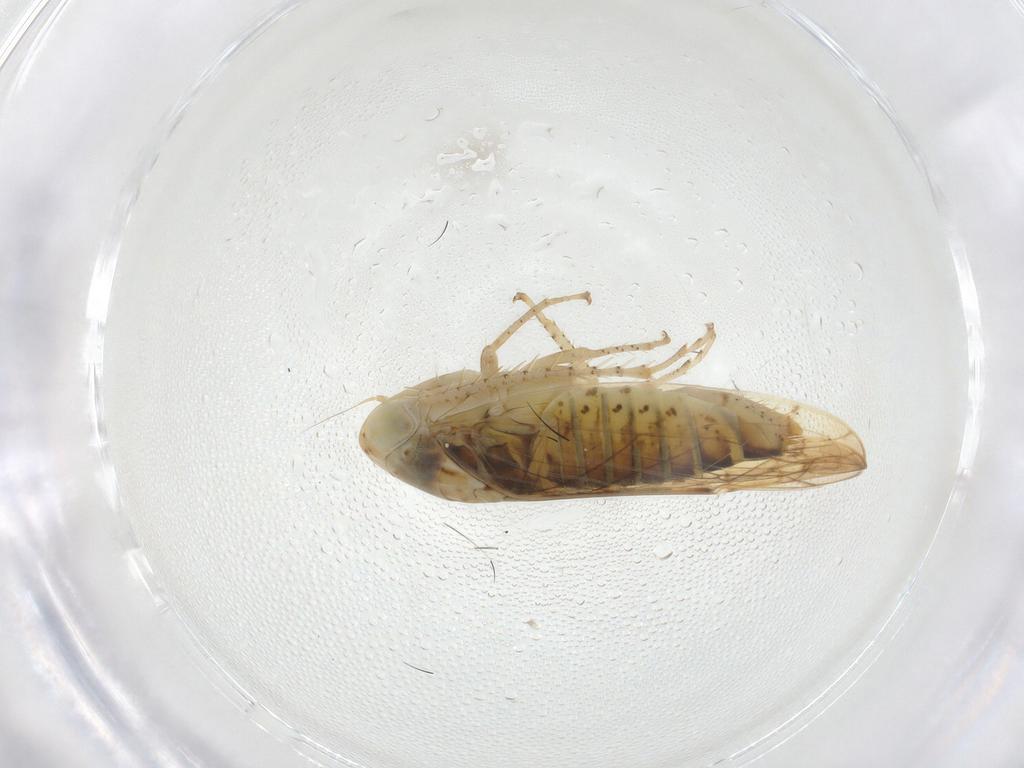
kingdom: Animalia
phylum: Arthropoda
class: Insecta
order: Hemiptera
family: Cicadellidae
